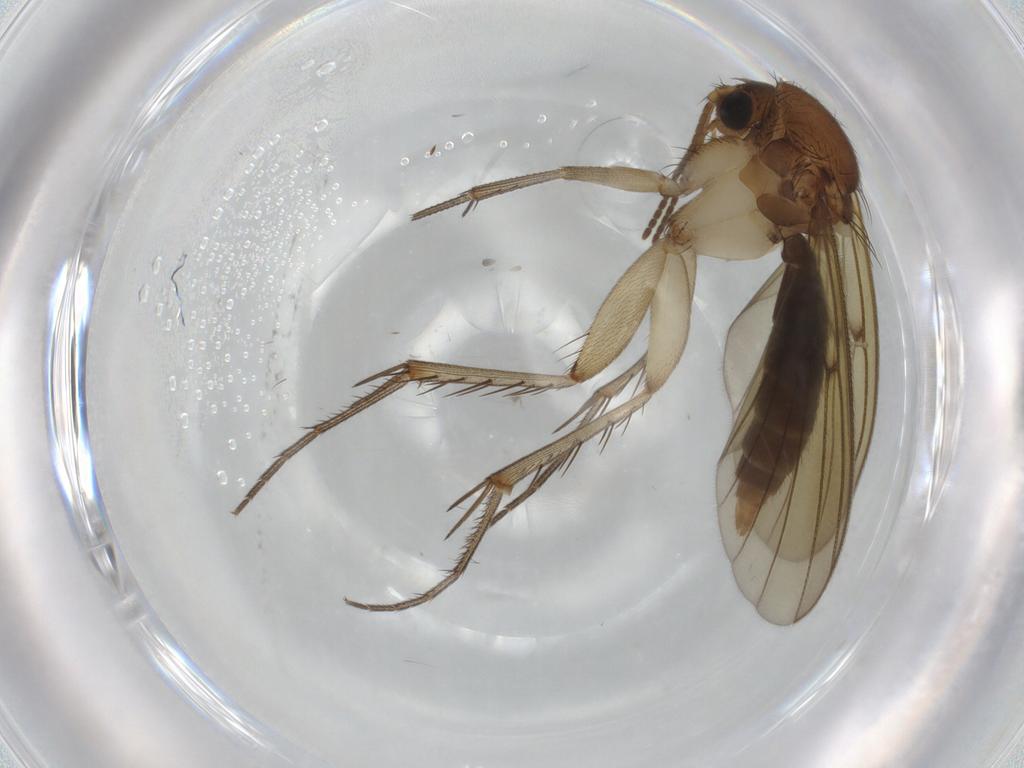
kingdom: Animalia
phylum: Arthropoda
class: Insecta
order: Diptera
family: Mycetophilidae
